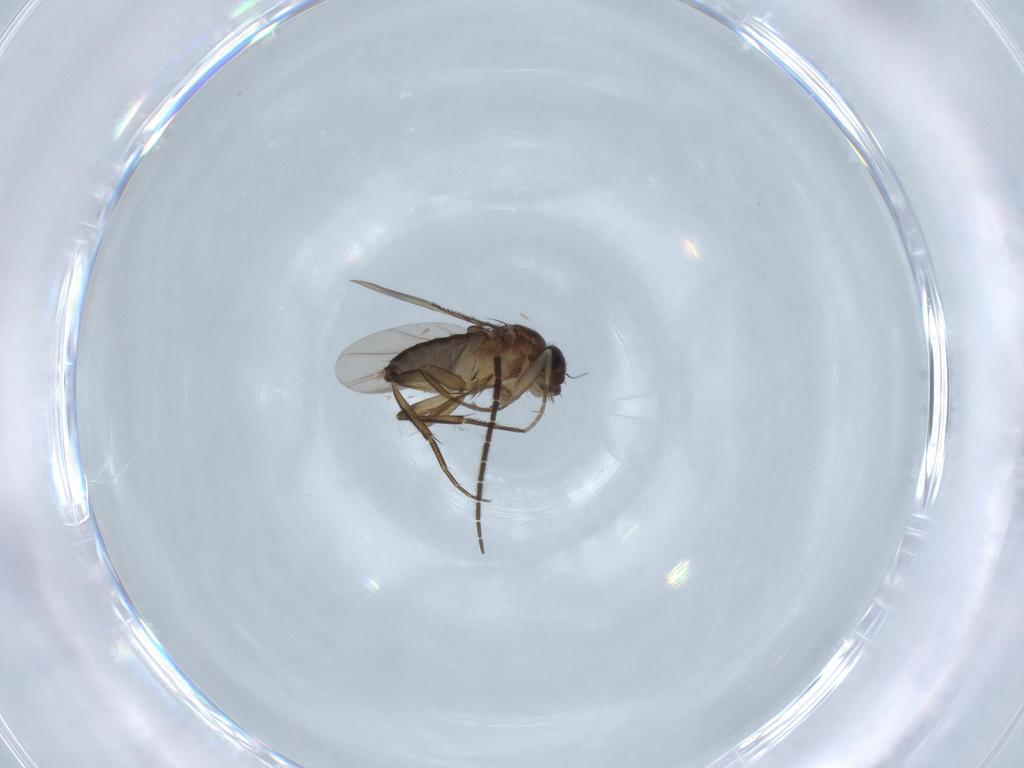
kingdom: Animalia
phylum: Arthropoda
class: Insecta
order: Diptera
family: Phoridae
